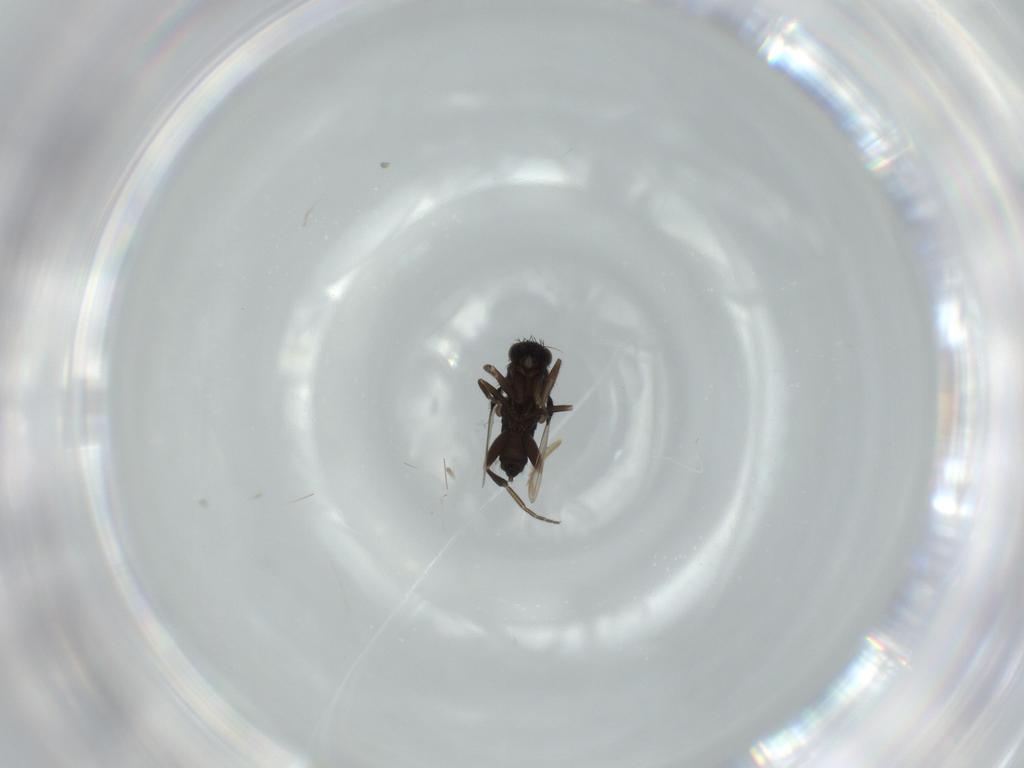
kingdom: Animalia
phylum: Arthropoda
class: Insecta
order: Diptera
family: Phoridae
